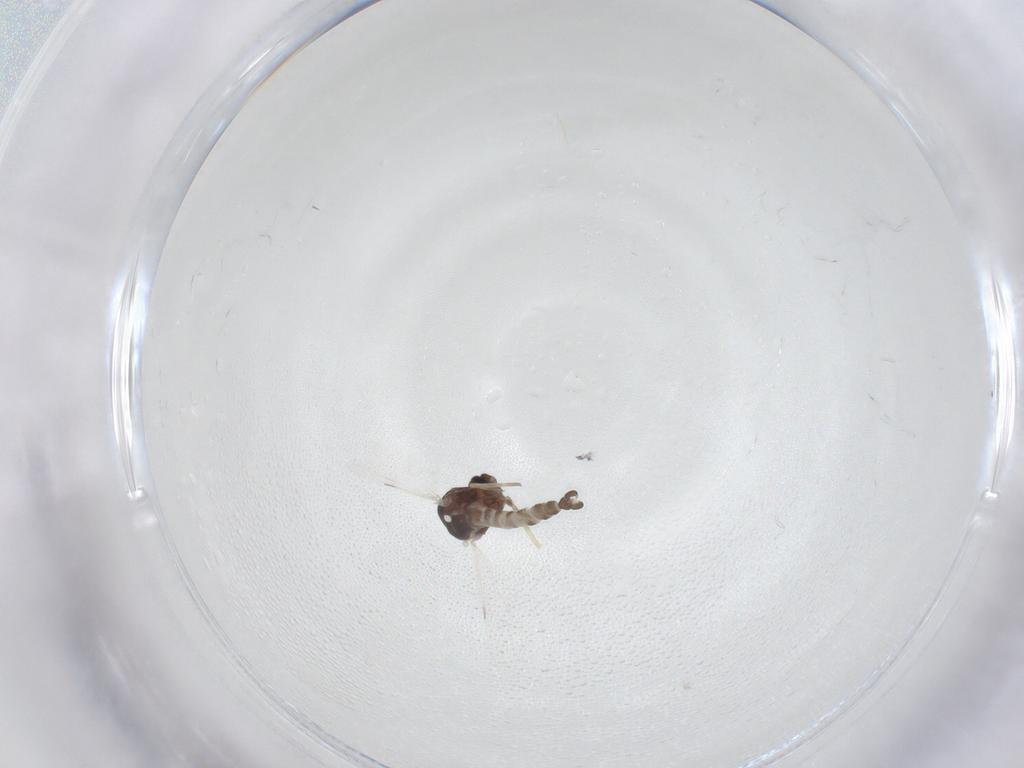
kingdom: Animalia
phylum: Arthropoda
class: Insecta
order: Diptera
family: Ceratopogonidae
